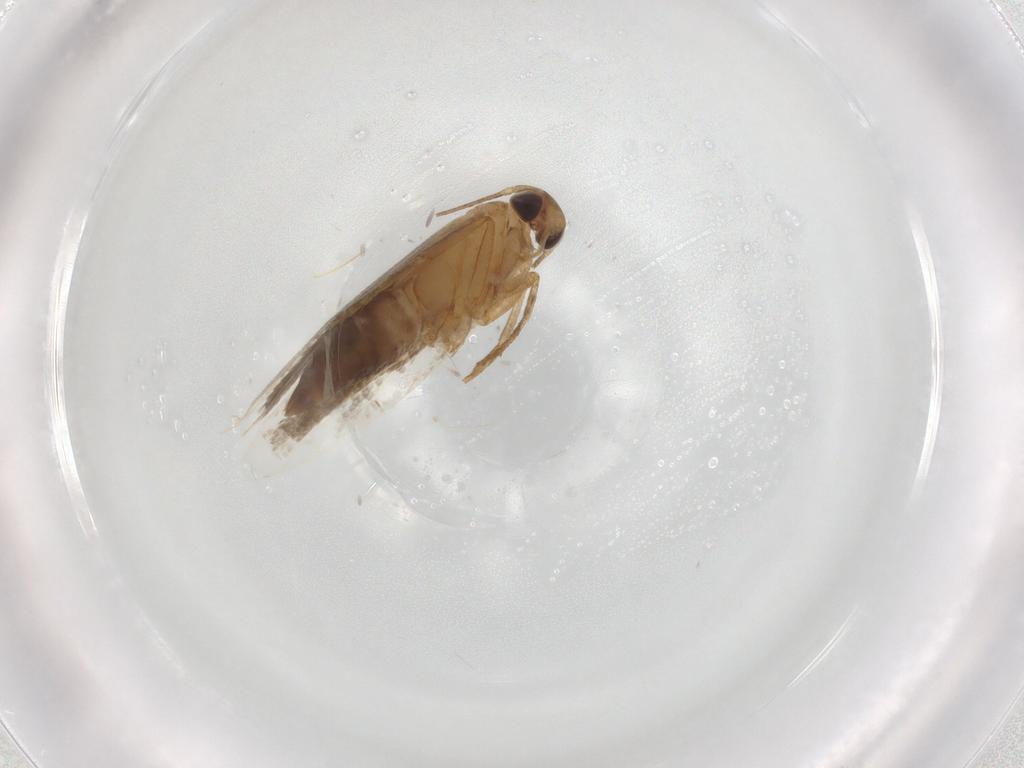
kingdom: Animalia
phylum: Arthropoda
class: Insecta
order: Lepidoptera
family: Gelechiidae
